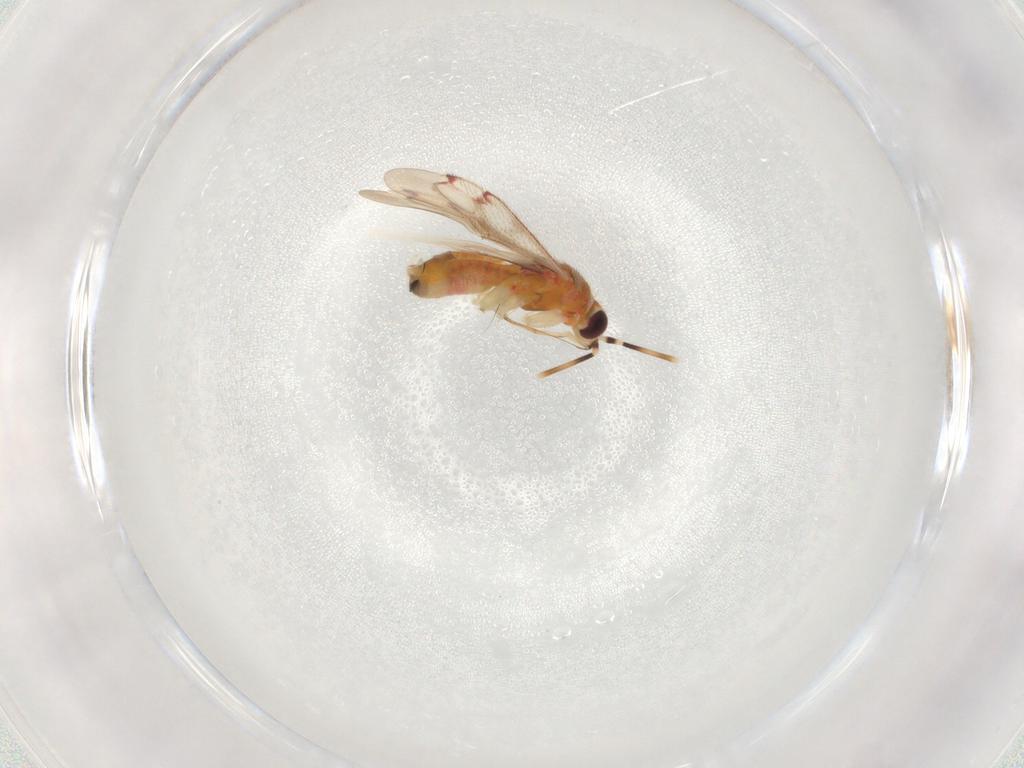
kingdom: Animalia
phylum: Arthropoda
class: Insecta
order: Hemiptera
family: Miridae
